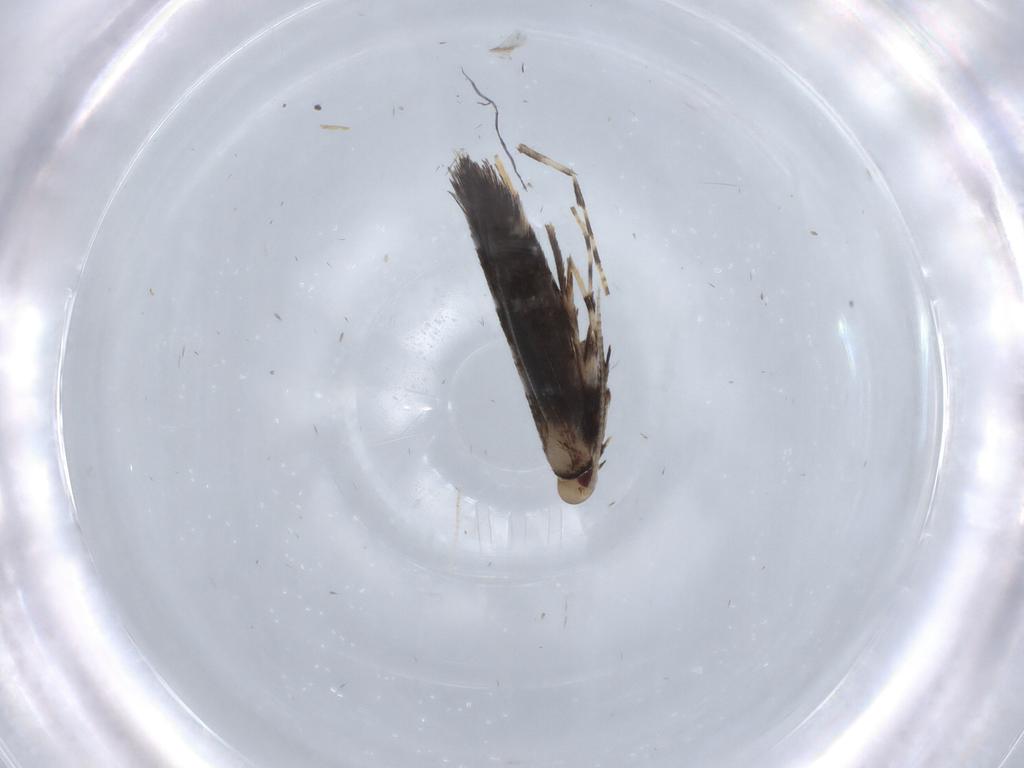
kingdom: Animalia
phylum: Arthropoda
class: Insecta
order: Lepidoptera
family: Gracillariidae
